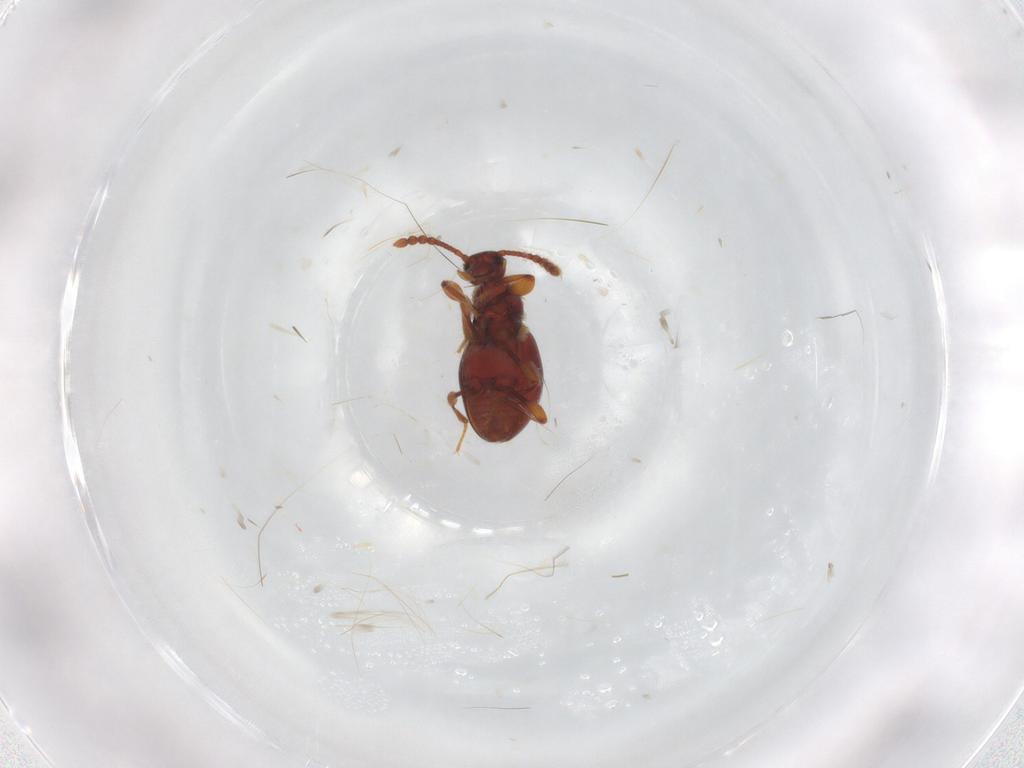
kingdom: Animalia
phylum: Arthropoda
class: Insecta
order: Coleoptera
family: Staphylinidae
